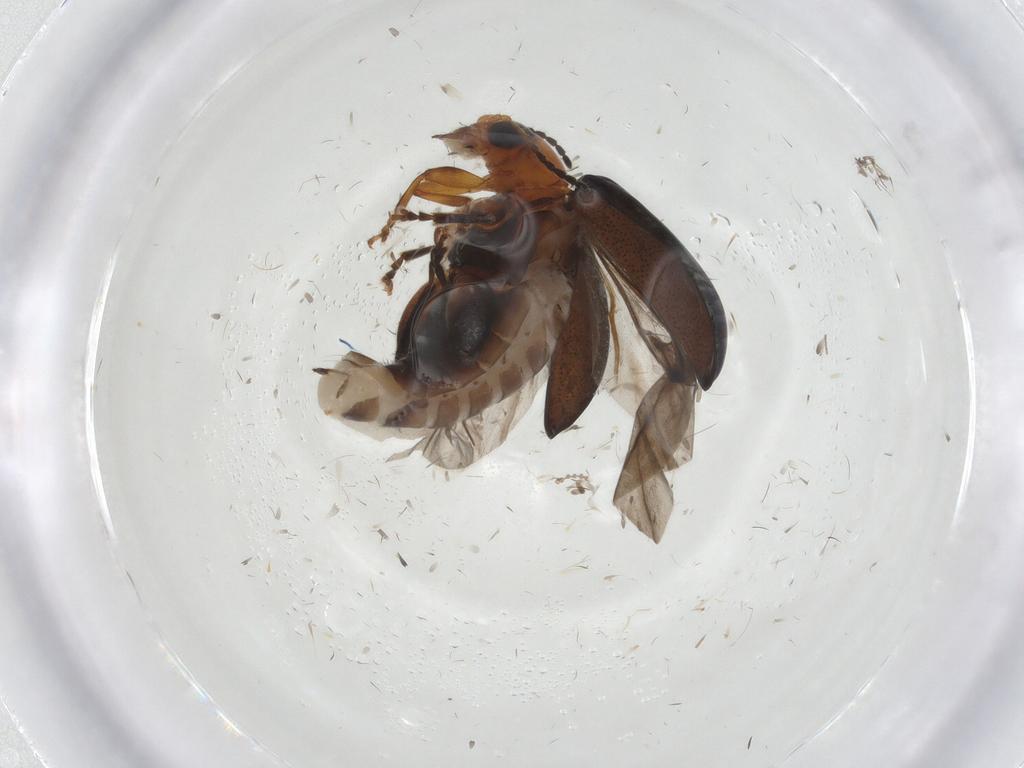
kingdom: Animalia
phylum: Arthropoda
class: Insecta
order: Coleoptera
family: Chrysomelidae
